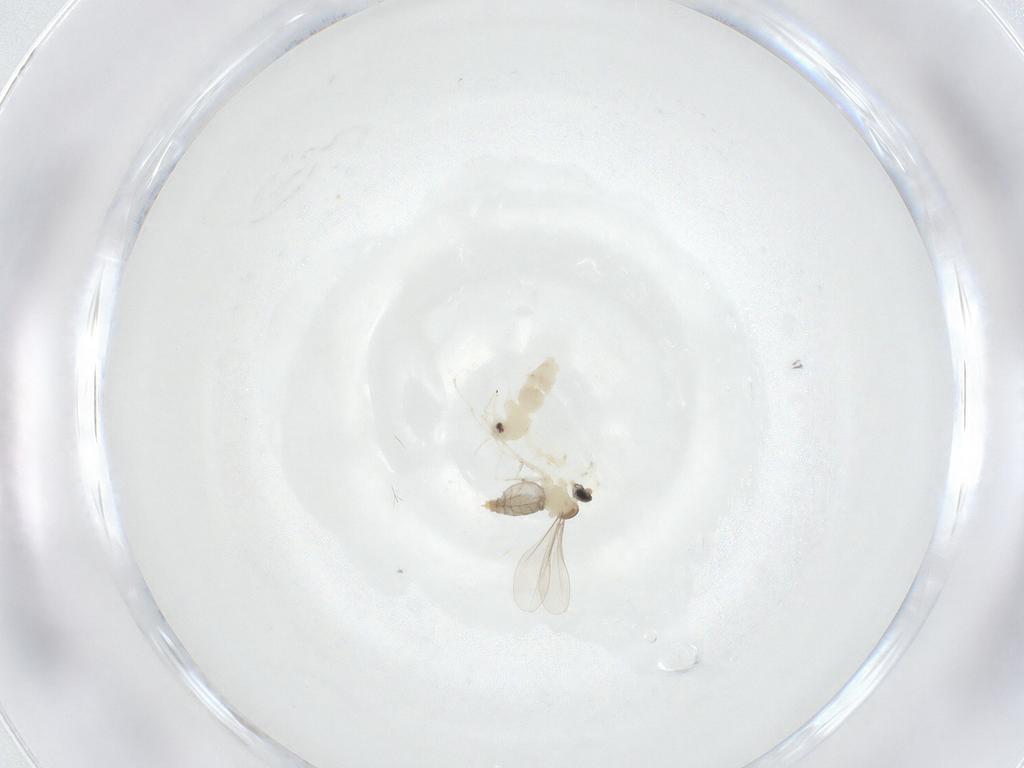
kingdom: Animalia
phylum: Arthropoda
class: Insecta
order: Hemiptera
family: Aleyrodidae
